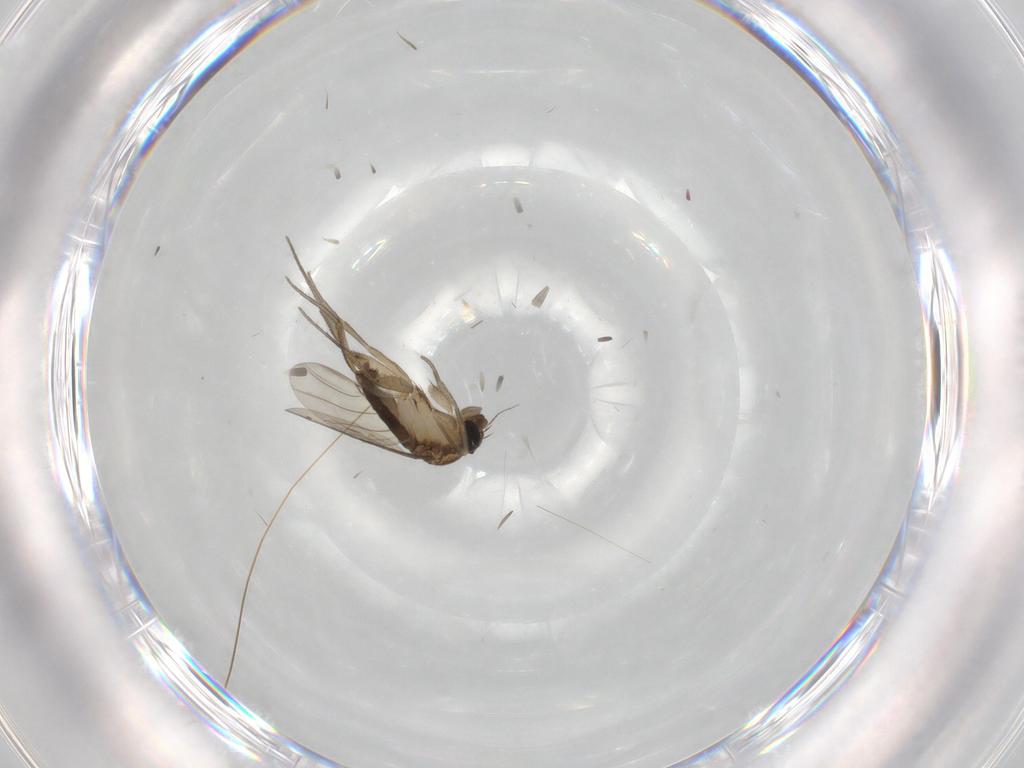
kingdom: Animalia
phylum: Arthropoda
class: Insecta
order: Diptera
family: Phoridae
